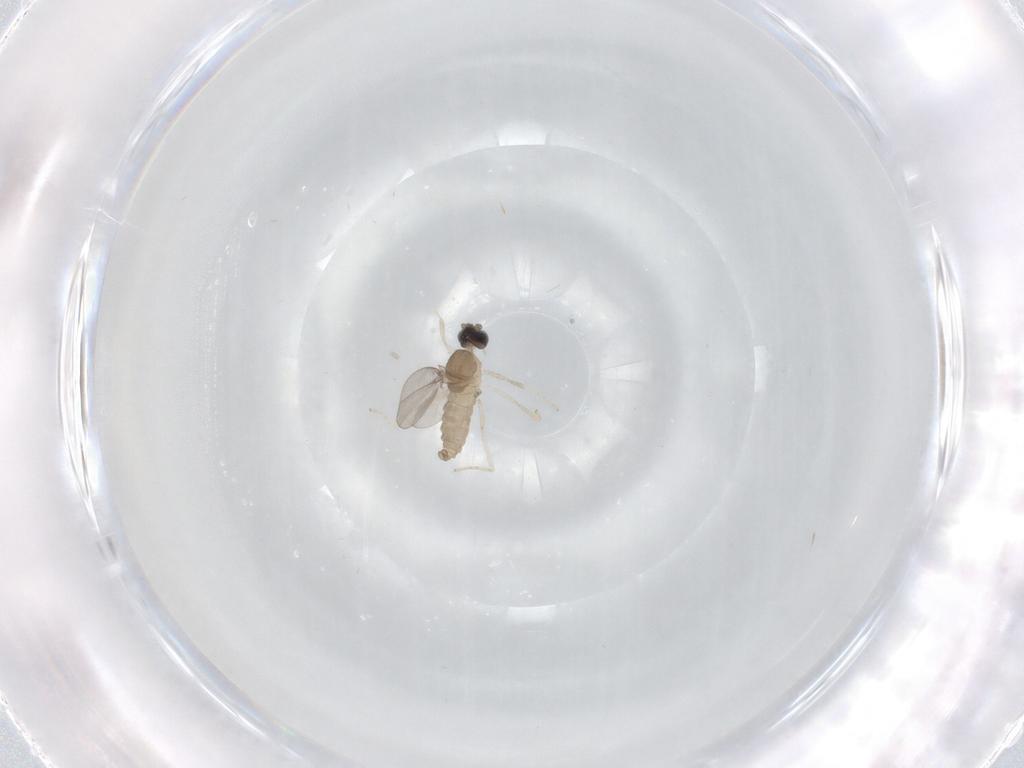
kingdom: Animalia
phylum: Arthropoda
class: Insecta
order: Diptera
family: Cecidomyiidae
